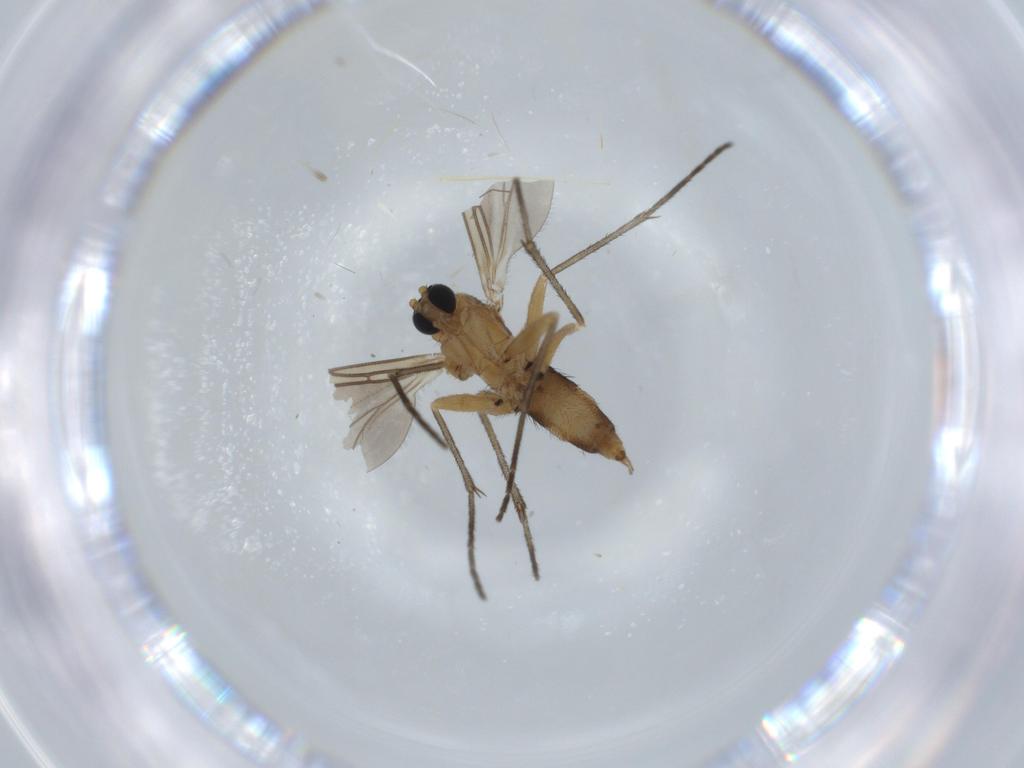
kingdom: Animalia
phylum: Arthropoda
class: Insecta
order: Diptera
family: Sciaridae
